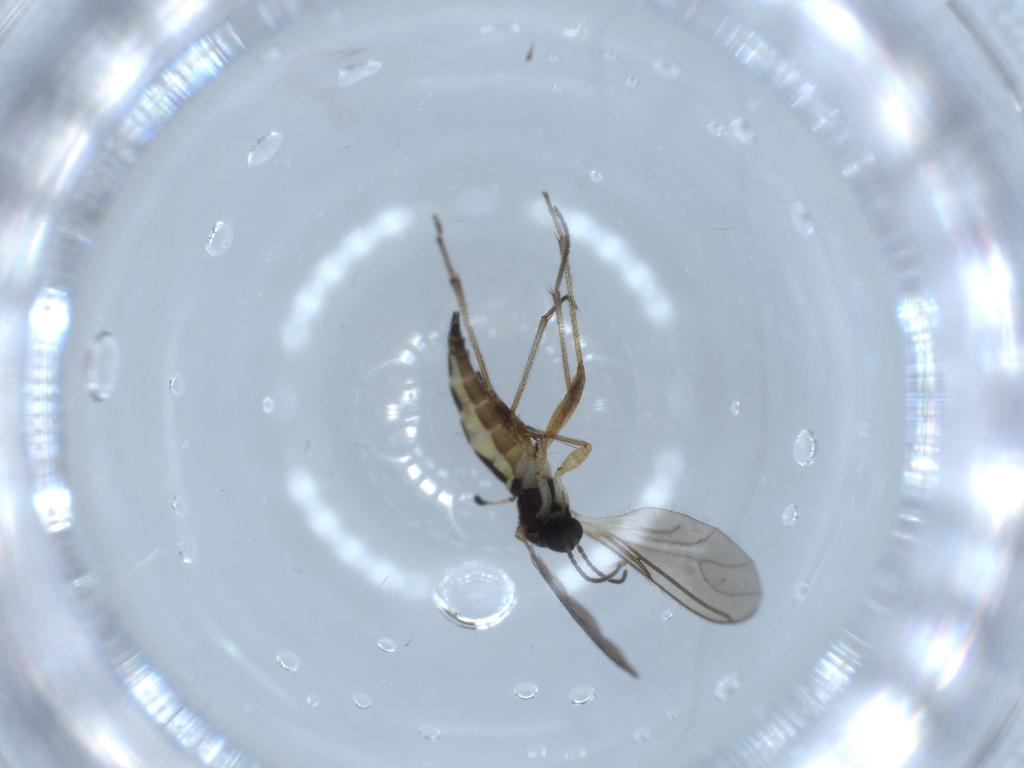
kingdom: Animalia
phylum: Arthropoda
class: Insecta
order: Diptera
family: Sciaridae
